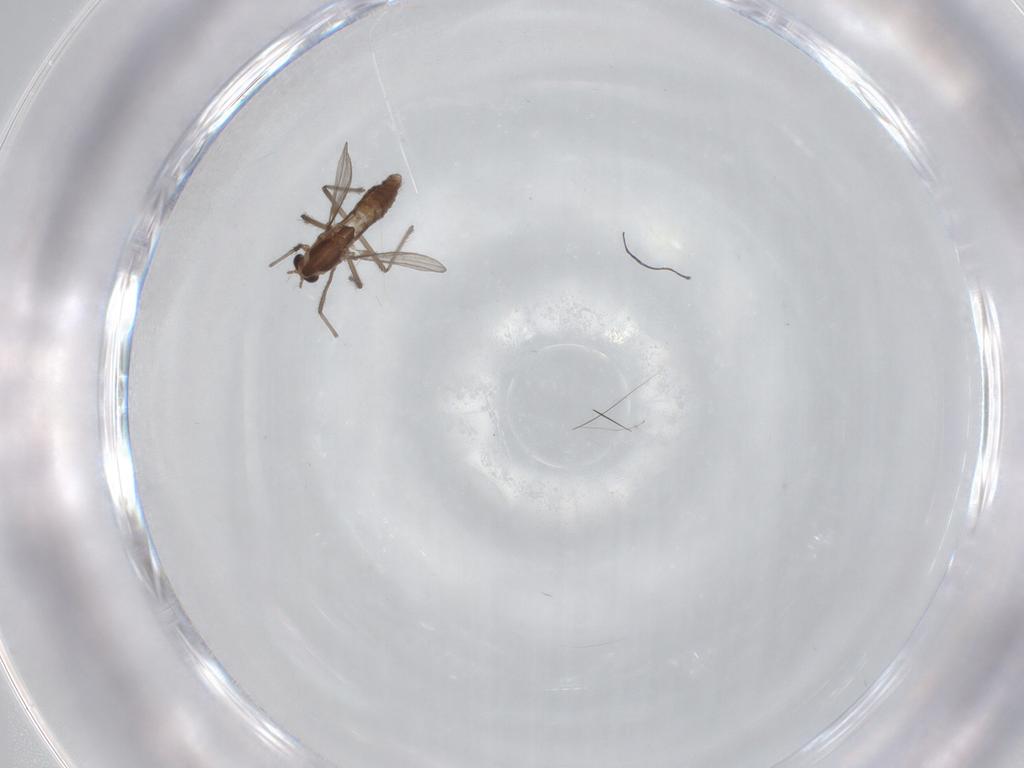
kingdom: Animalia
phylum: Arthropoda
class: Insecta
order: Diptera
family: Chironomidae
